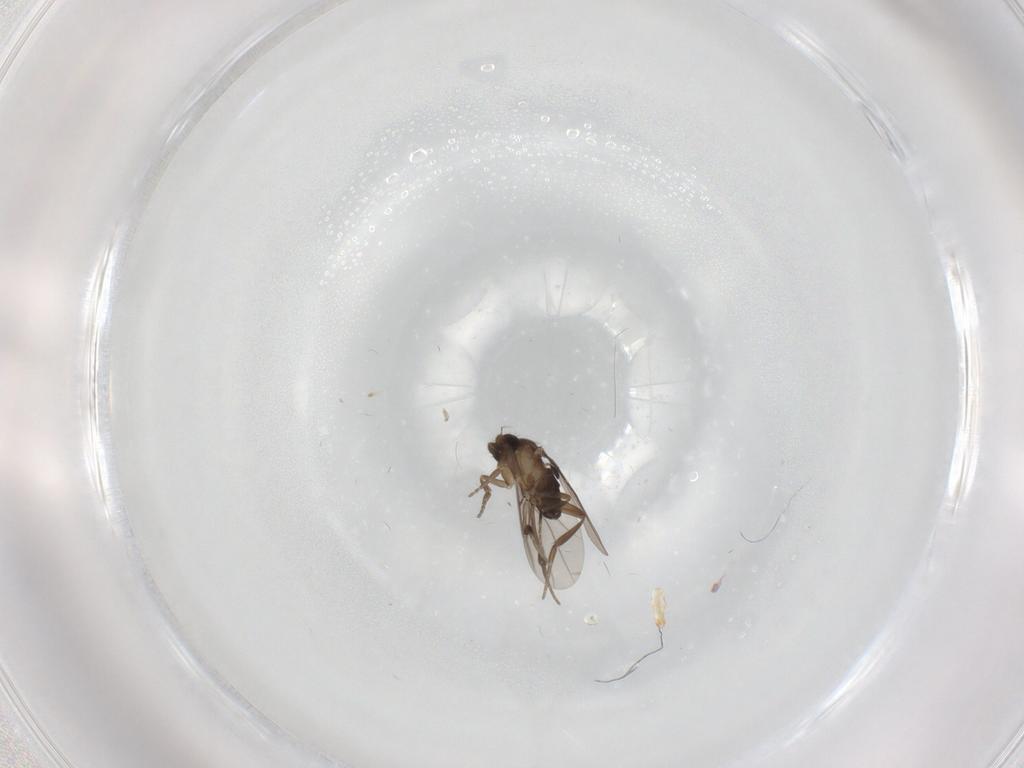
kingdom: Animalia
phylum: Arthropoda
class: Insecta
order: Diptera
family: Phoridae
